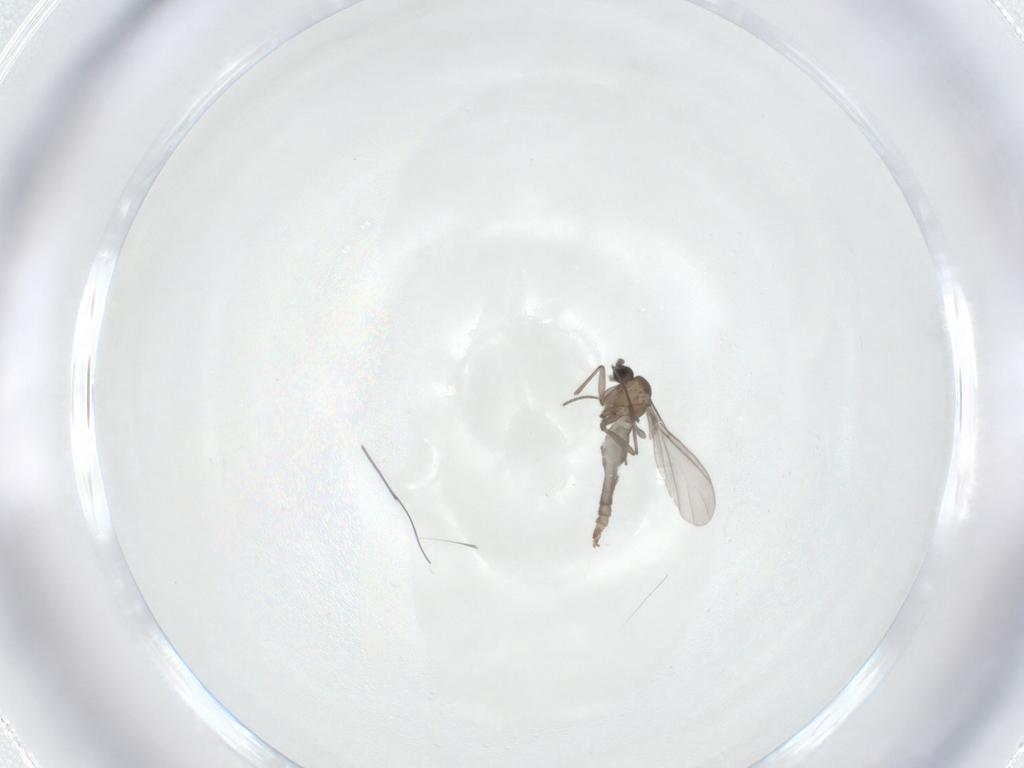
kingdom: Animalia
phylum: Arthropoda
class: Insecta
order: Diptera
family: Sciaridae
